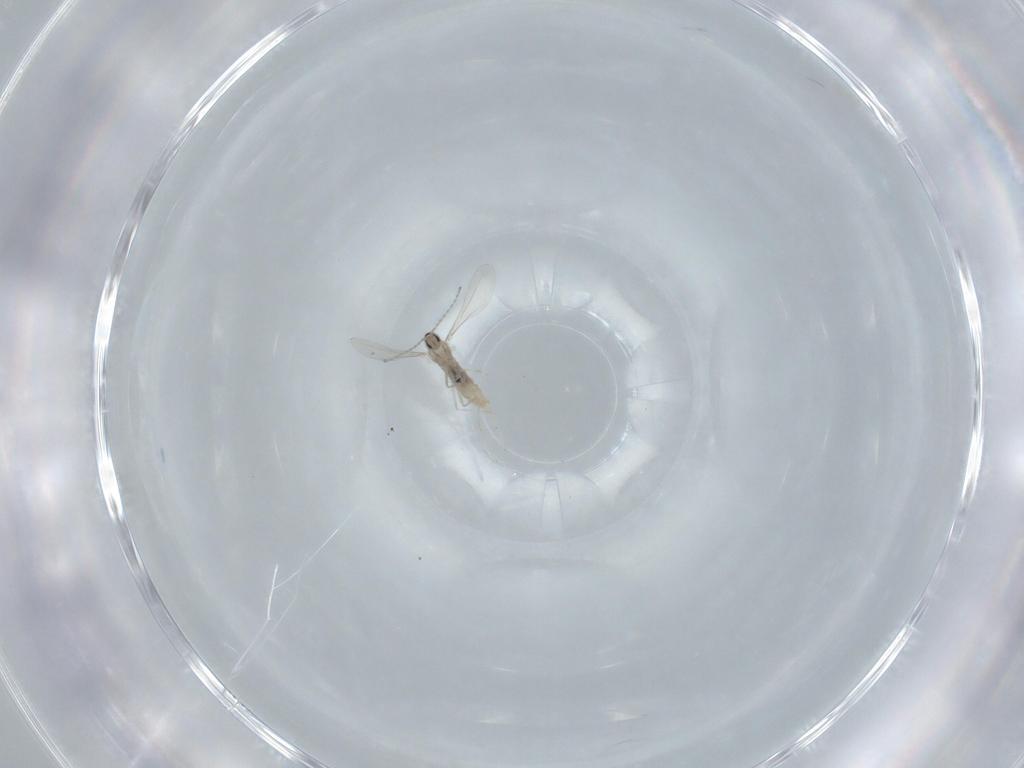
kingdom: Animalia
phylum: Arthropoda
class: Insecta
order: Diptera
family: Cecidomyiidae
